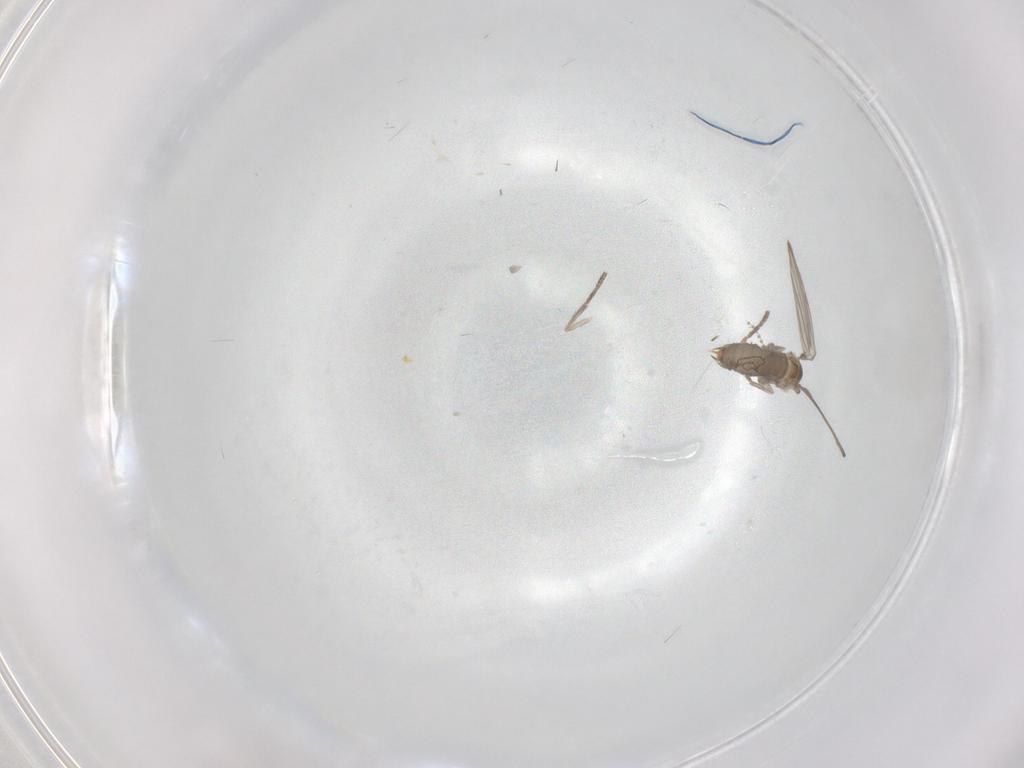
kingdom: Animalia
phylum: Arthropoda
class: Insecta
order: Diptera
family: Psychodidae
